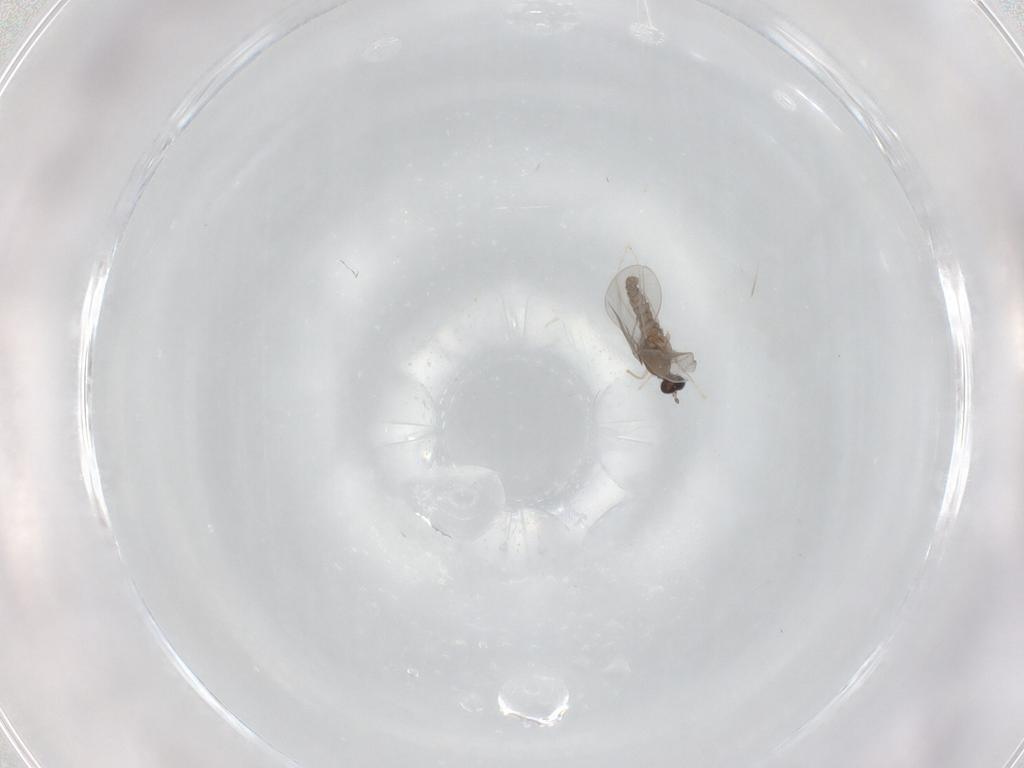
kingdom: Animalia
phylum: Arthropoda
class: Insecta
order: Diptera
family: Cecidomyiidae
